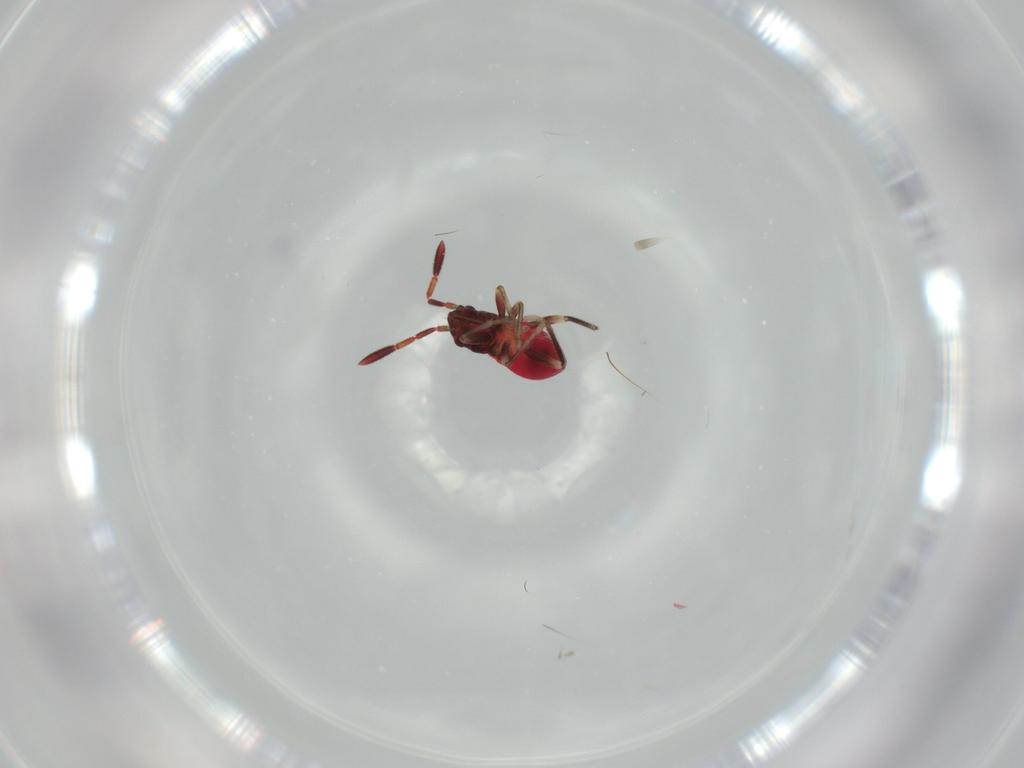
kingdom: Animalia
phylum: Arthropoda
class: Insecta
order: Hemiptera
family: Rhyparochromidae
